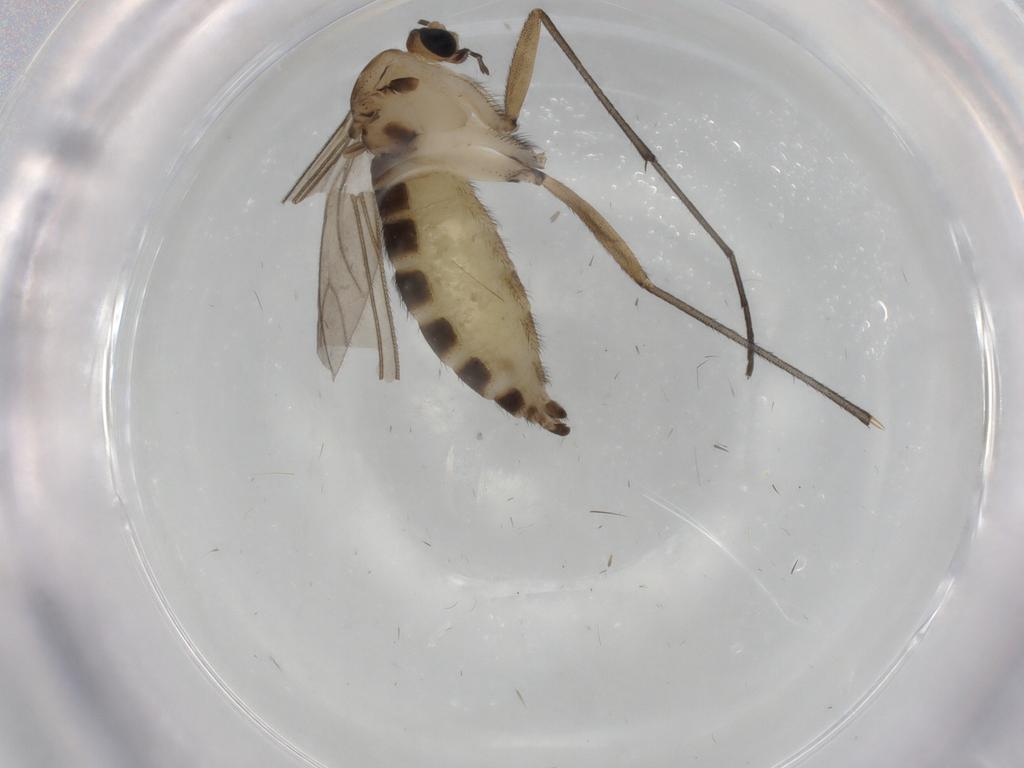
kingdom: Animalia
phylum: Arthropoda
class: Insecta
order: Diptera
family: Sciaridae
